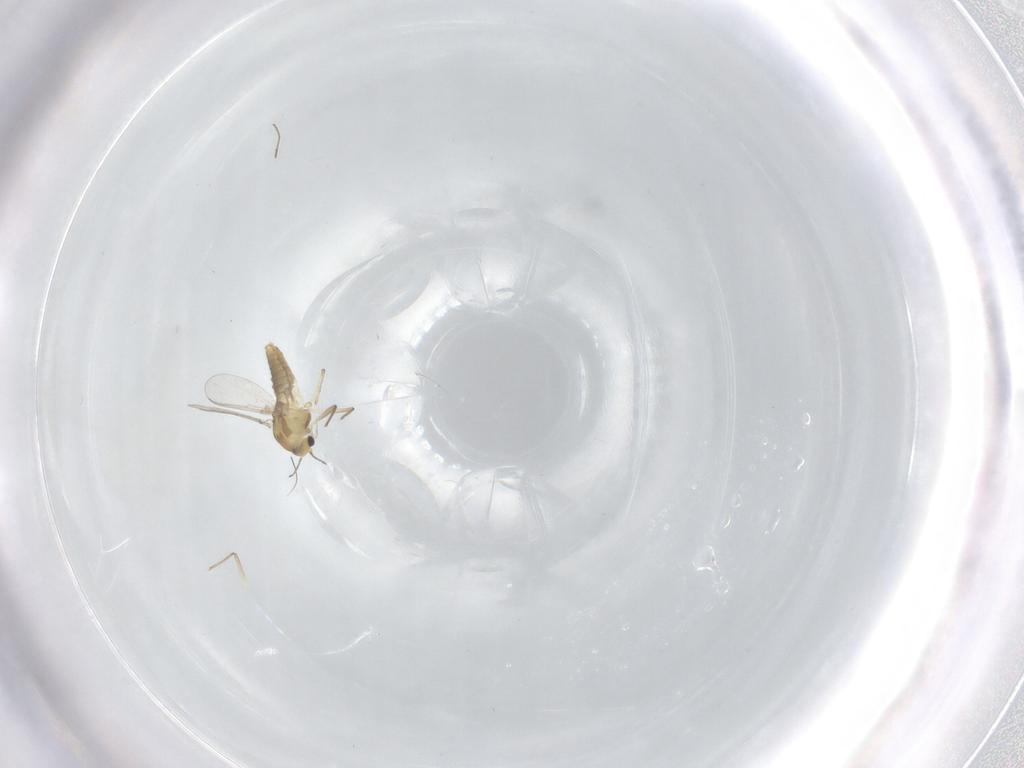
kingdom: Animalia
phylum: Arthropoda
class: Insecta
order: Diptera
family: Chironomidae
